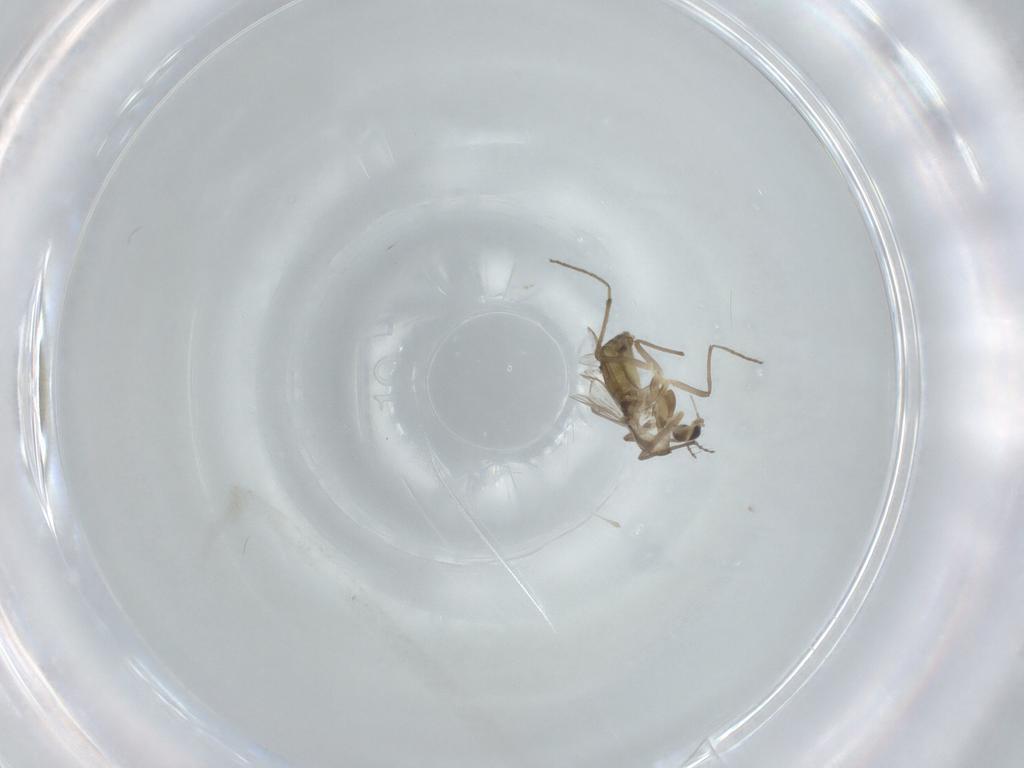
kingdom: Animalia
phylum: Arthropoda
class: Insecta
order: Diptera
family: Chironomidae
